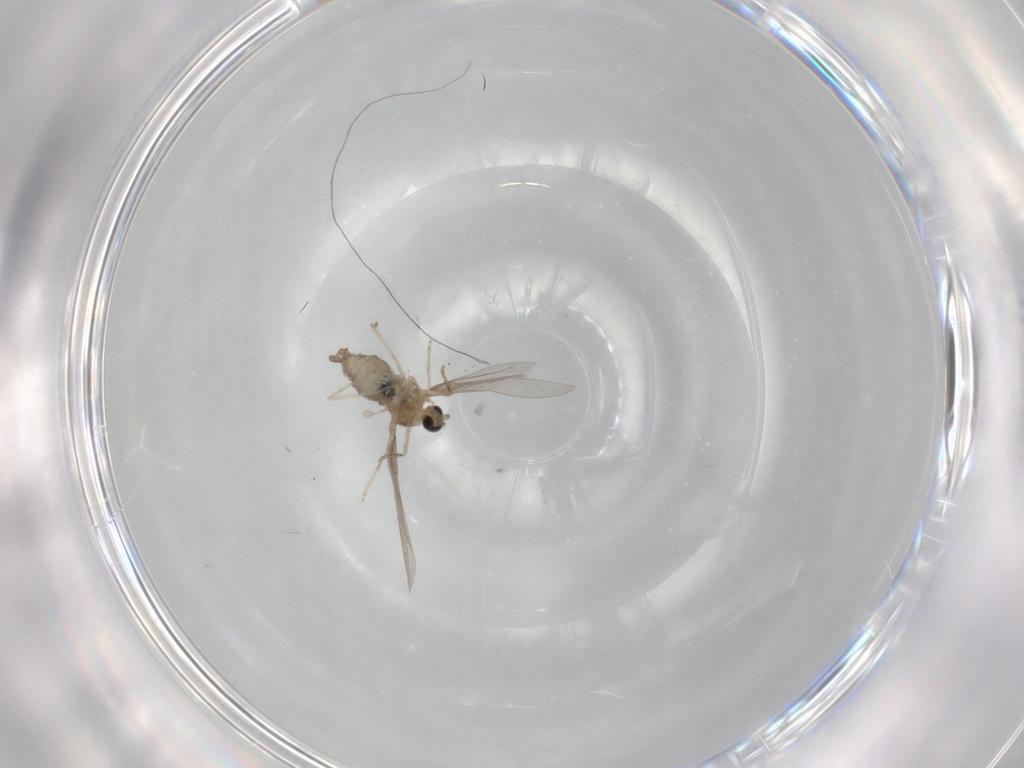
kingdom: Animalia
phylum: Arthropoda
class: Insecta
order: Diptera
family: Cecidomyiidae
